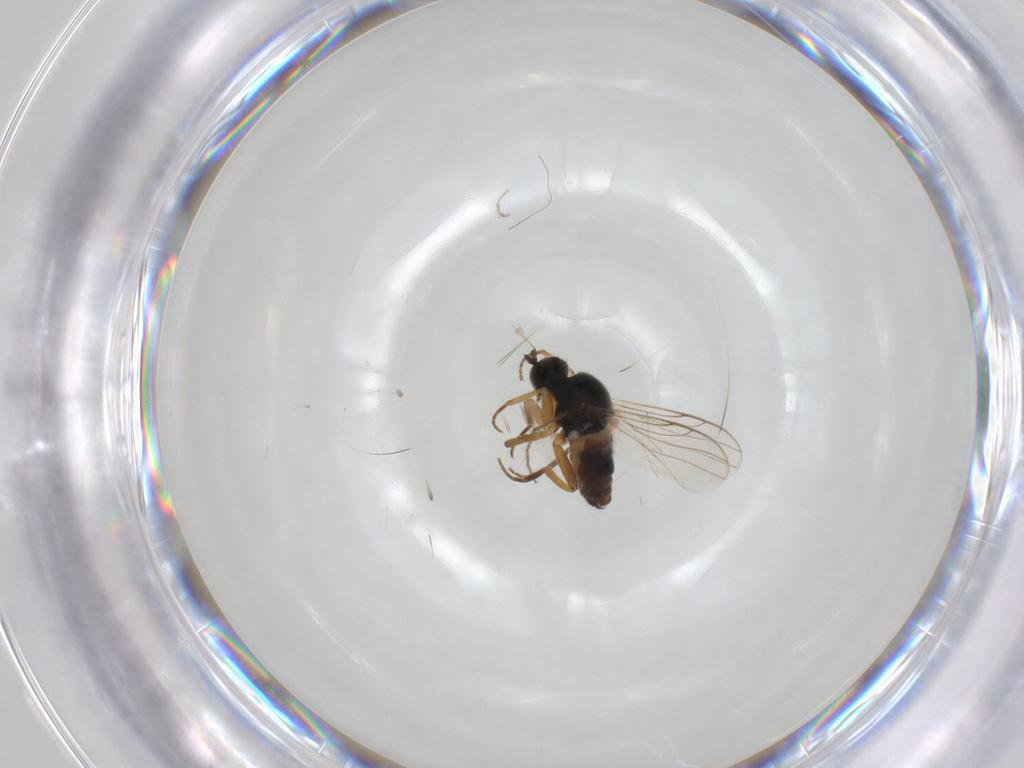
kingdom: Animalia
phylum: Arthropoda
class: Insecta
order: Diptera
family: Hybotidae
